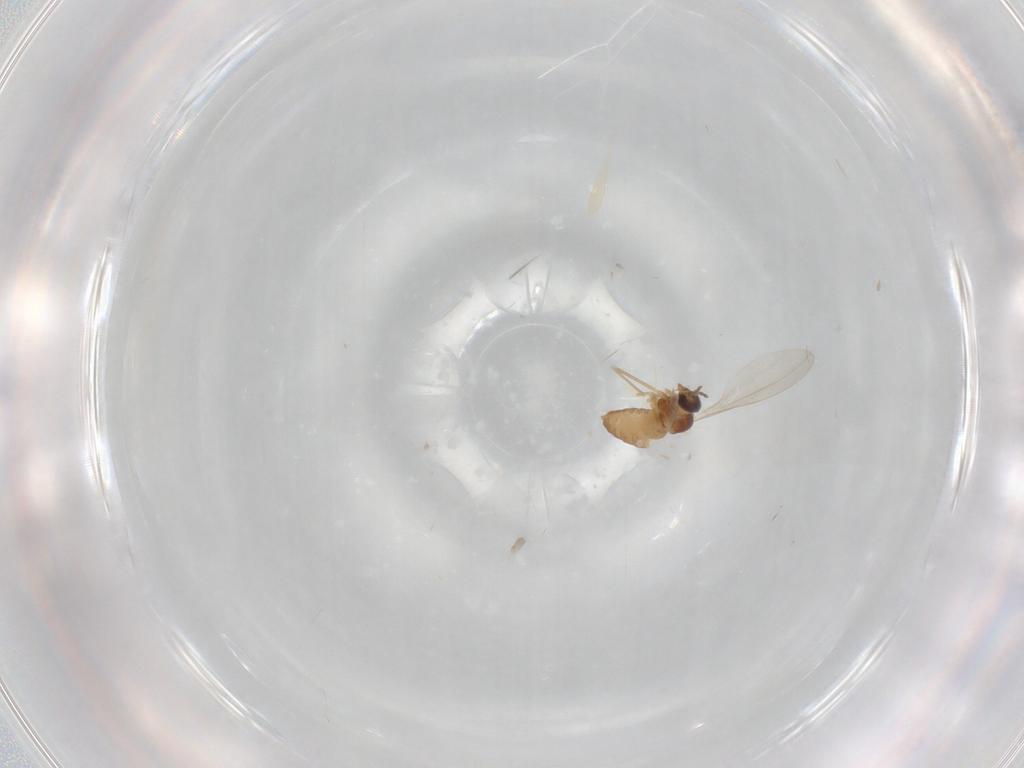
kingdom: Animalia
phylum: Arthropoda
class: Insecta
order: Diptera
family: Cecidomyiidae
